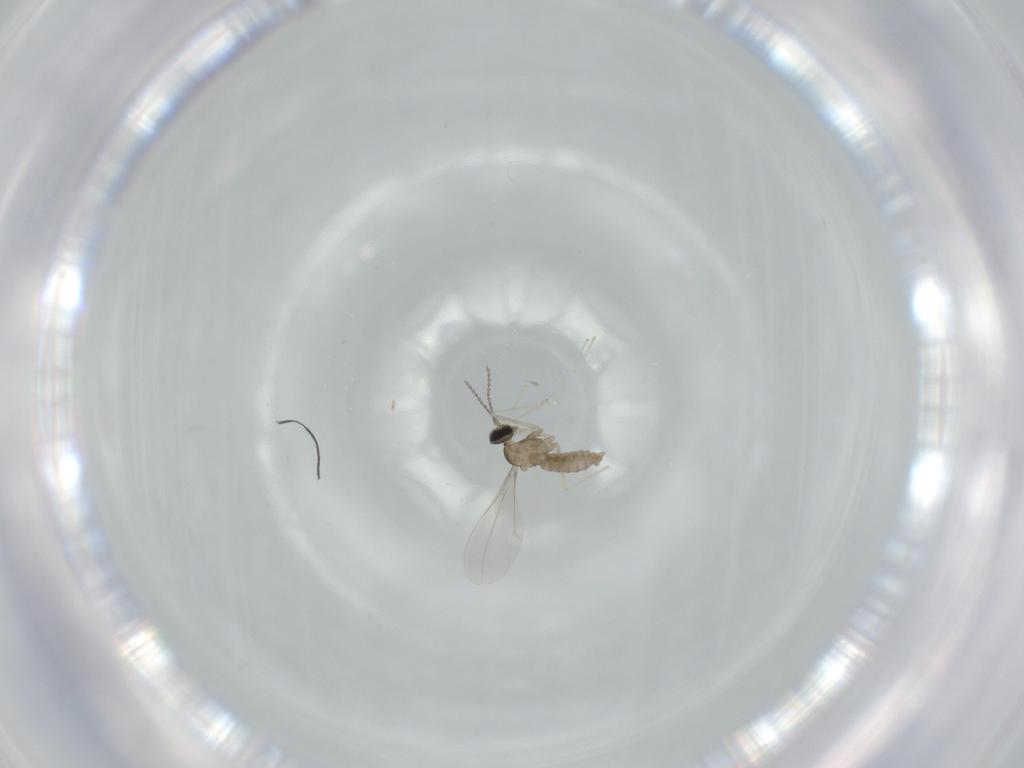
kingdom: Animalia
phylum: Arthropoda
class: Insecta
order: Diptera
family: Cecidomyiidae
